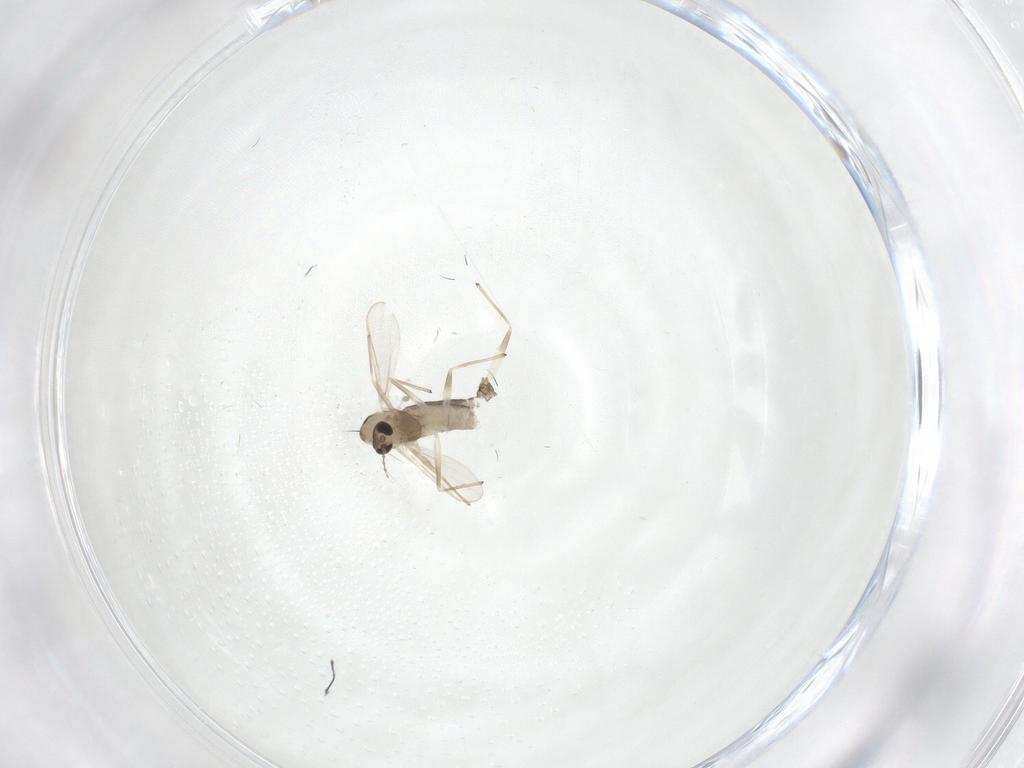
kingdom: Animalia
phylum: Arthropoda
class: Insecta
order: Diptera
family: Chironomidae
